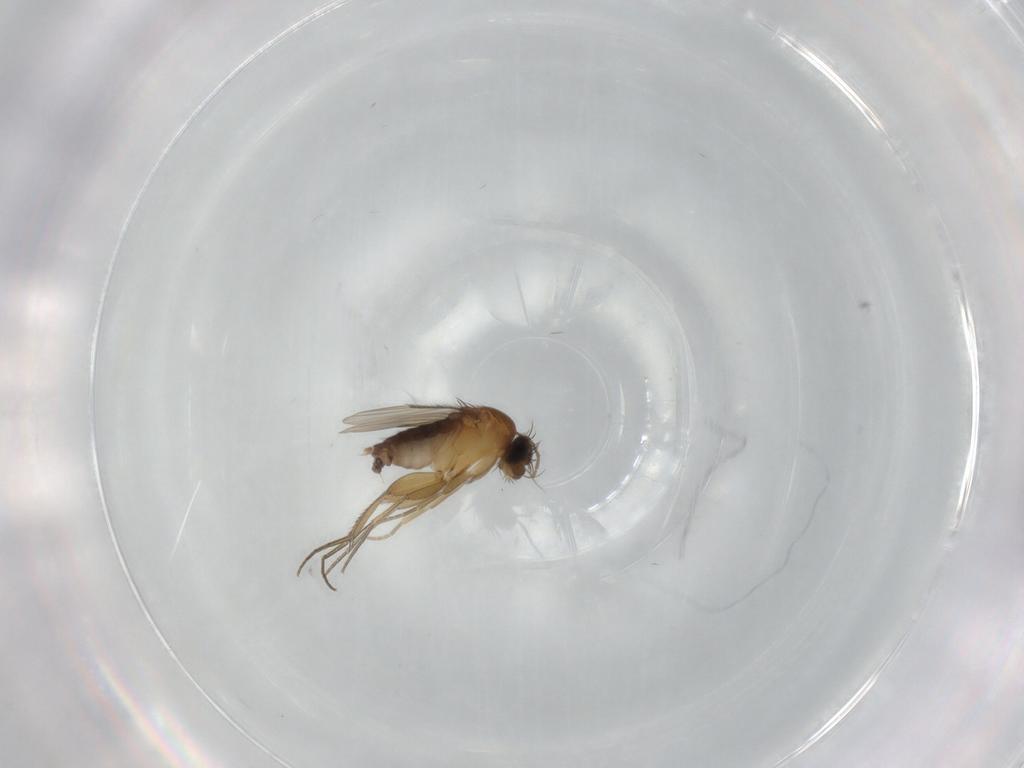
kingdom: Animalia
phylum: Arthropoda
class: Insecta
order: Diptera
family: Phoridae
